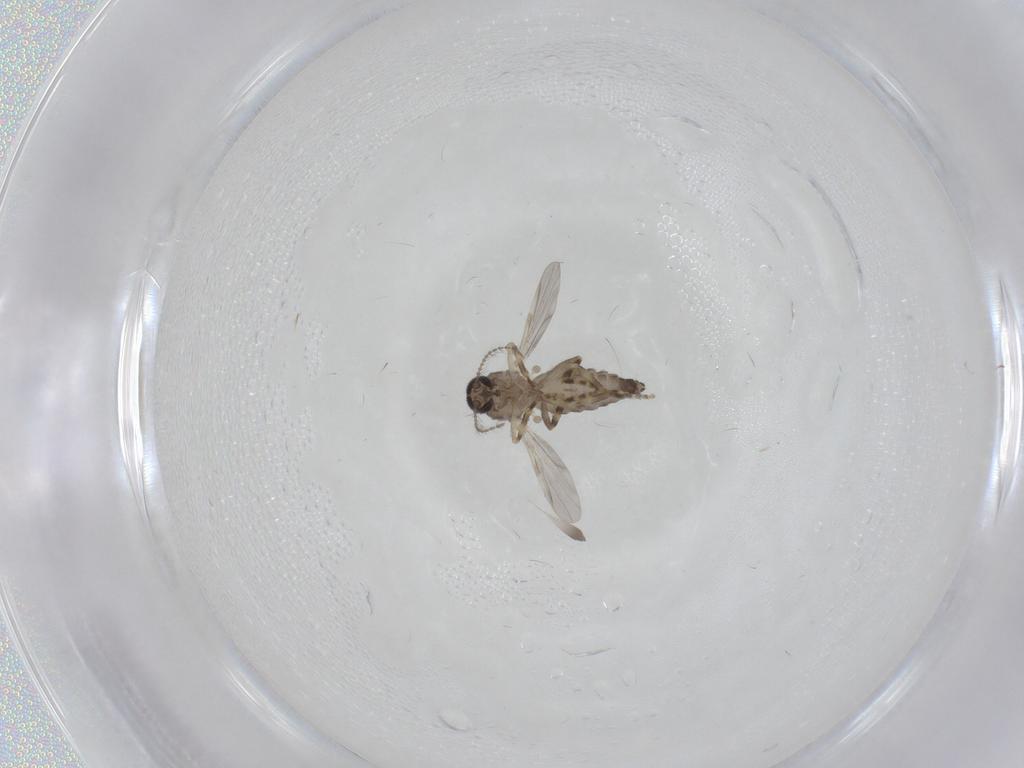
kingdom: Animalia
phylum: Arthropoda
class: Insecta
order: Diptera
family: Ceratopogonidae
